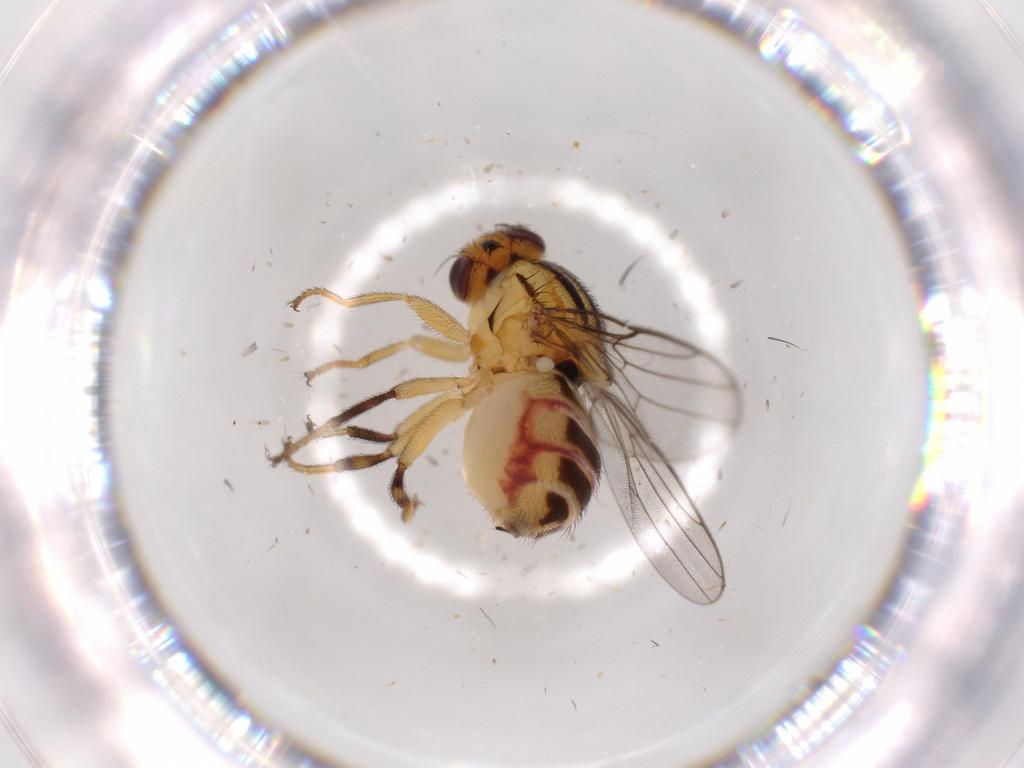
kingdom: Animalia
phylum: Arthropoda
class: Insecta
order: Diptera
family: Chloropidae
